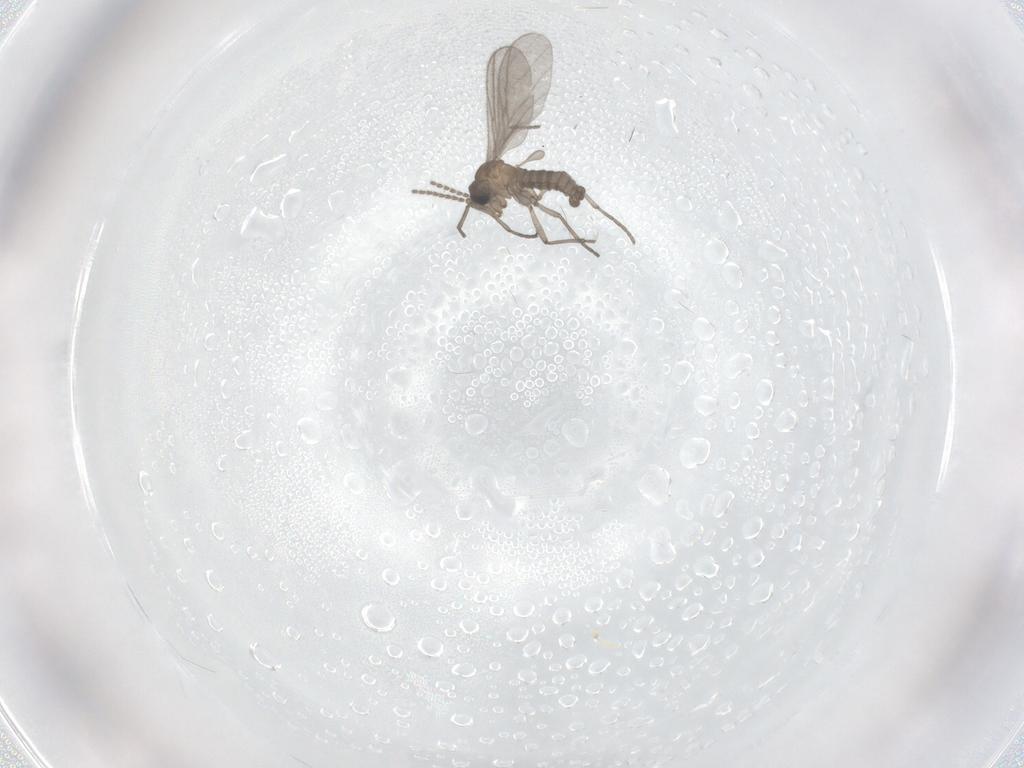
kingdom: Animalia
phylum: Arthropoda
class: Insecta
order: Diptera
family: Sciaridae
